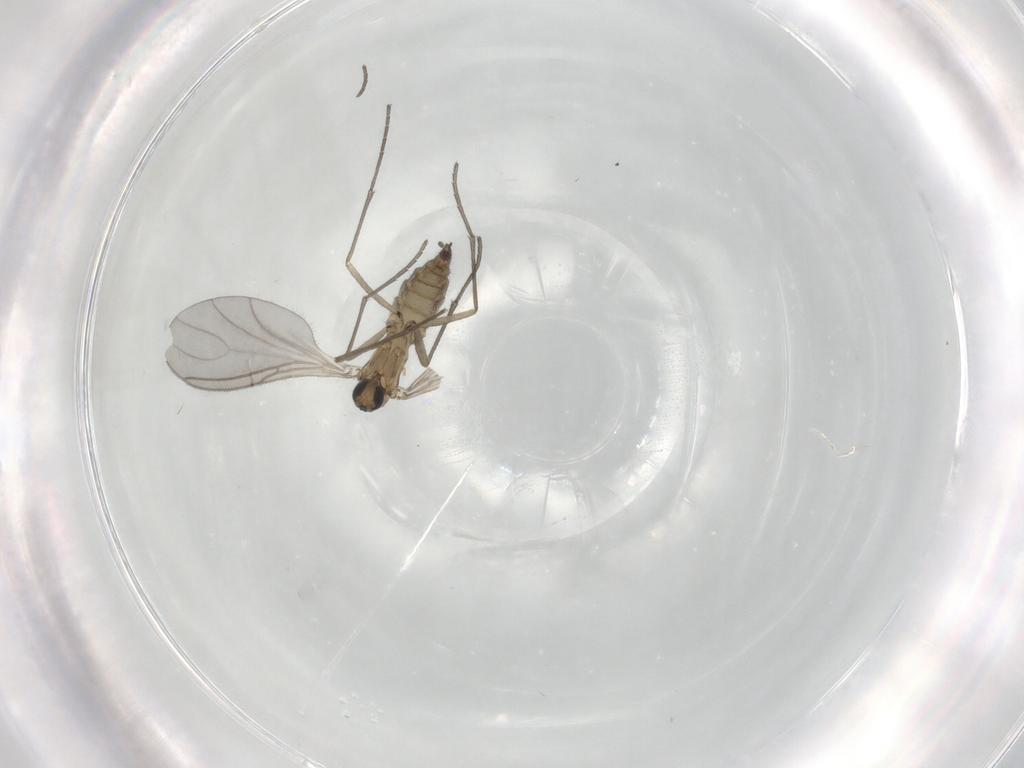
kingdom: Animalia
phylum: Arthropoda
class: Insecta
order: Diptera
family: Sciaridae
